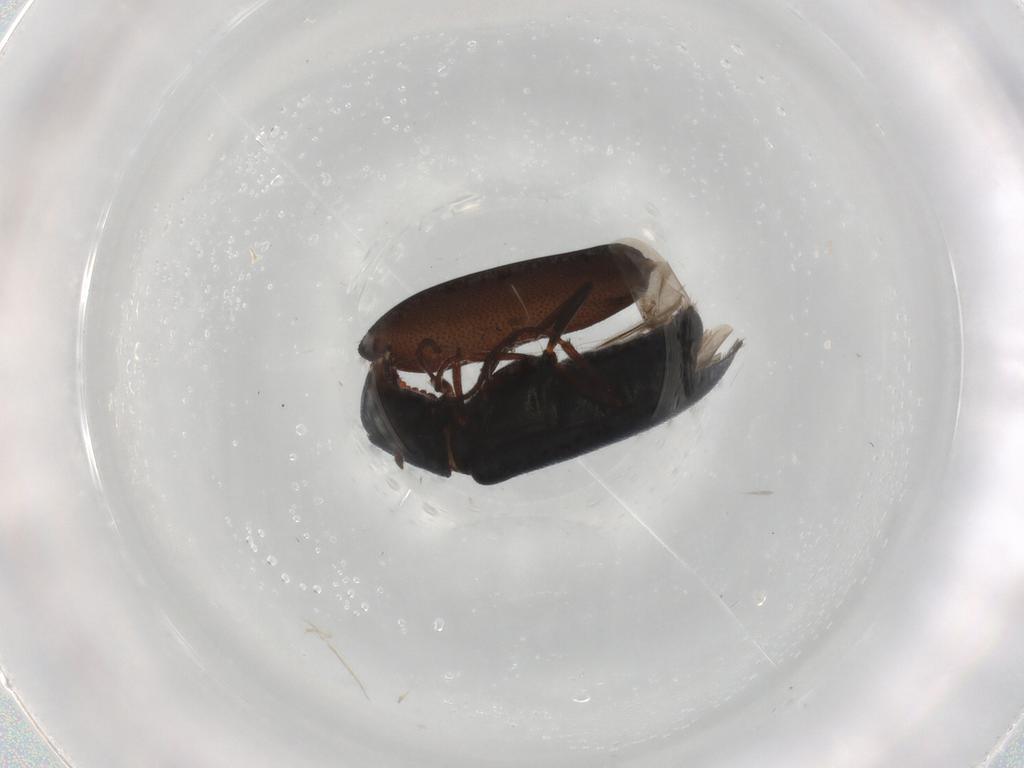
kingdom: Animalia
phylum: Arthropoda
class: Insecta
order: Coleoptera
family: Melyridae
